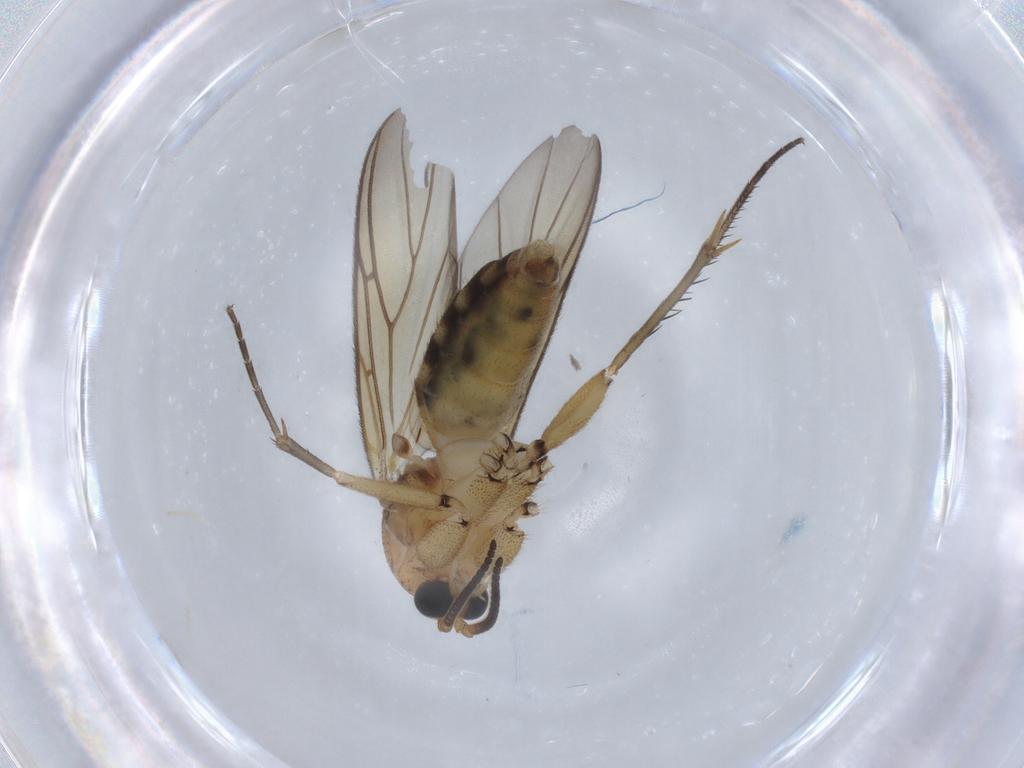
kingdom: Animalia
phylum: Arthropoda
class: Insecta
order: Diptera
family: Mycetophilidae
